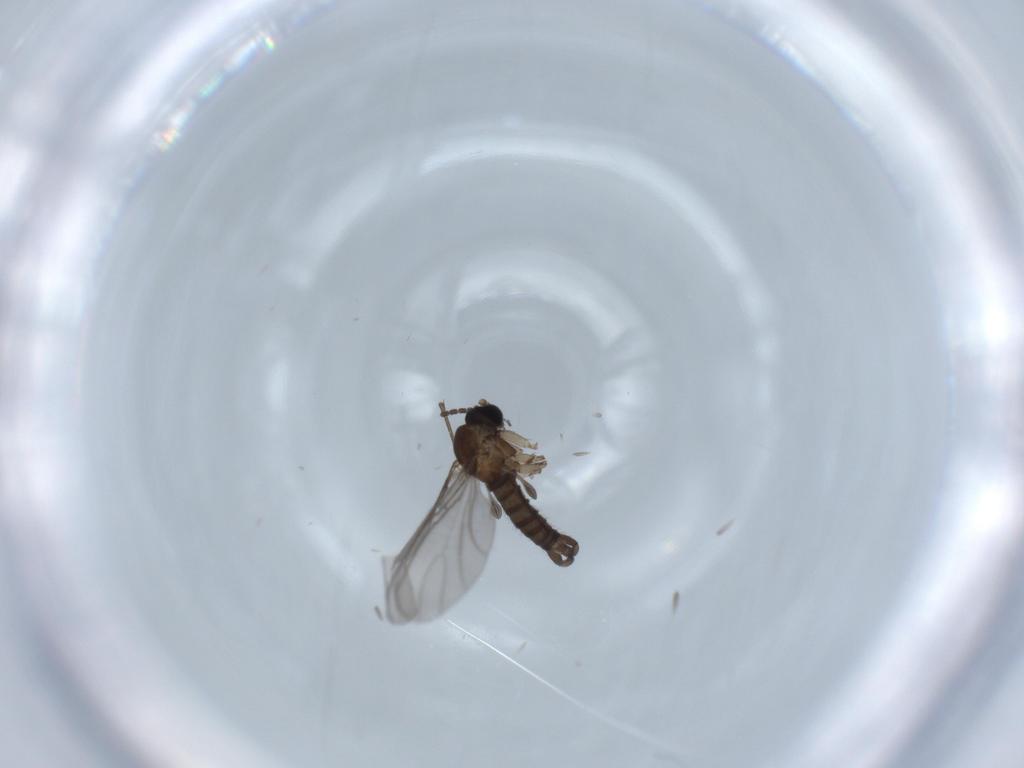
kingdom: Animalia
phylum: Arthropoda
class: Insecta
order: Diptera
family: Sciaridae
